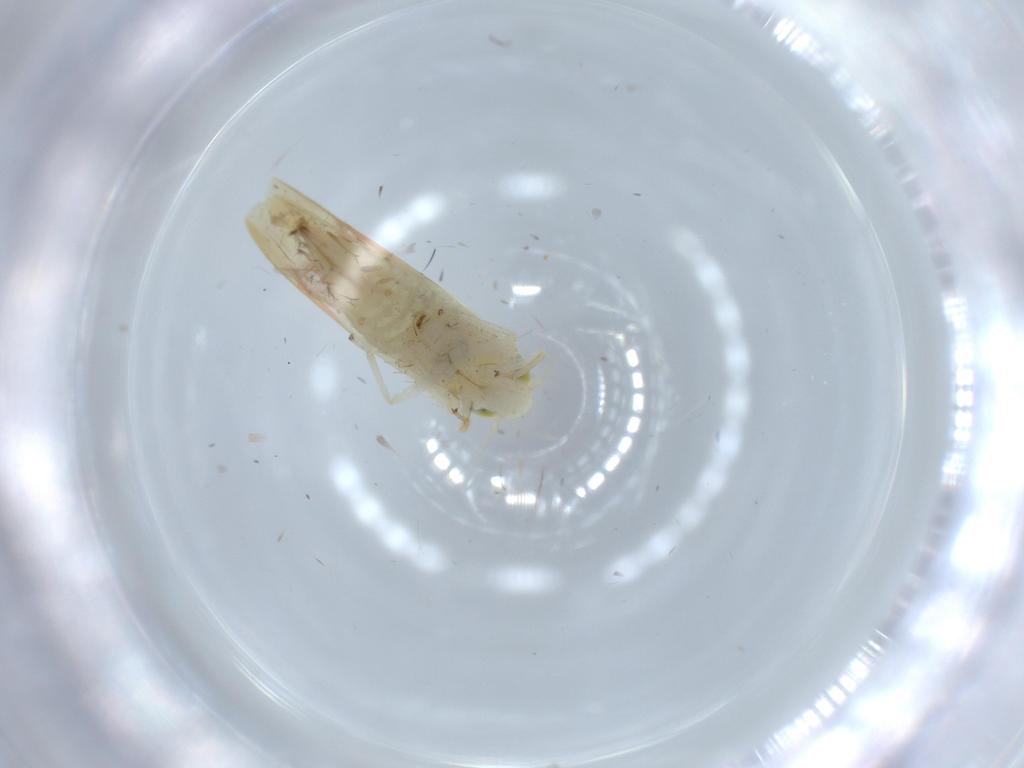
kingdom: Animalia
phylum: Arthropoda
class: Insecta
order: Hemiptera
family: Cicadellidae
